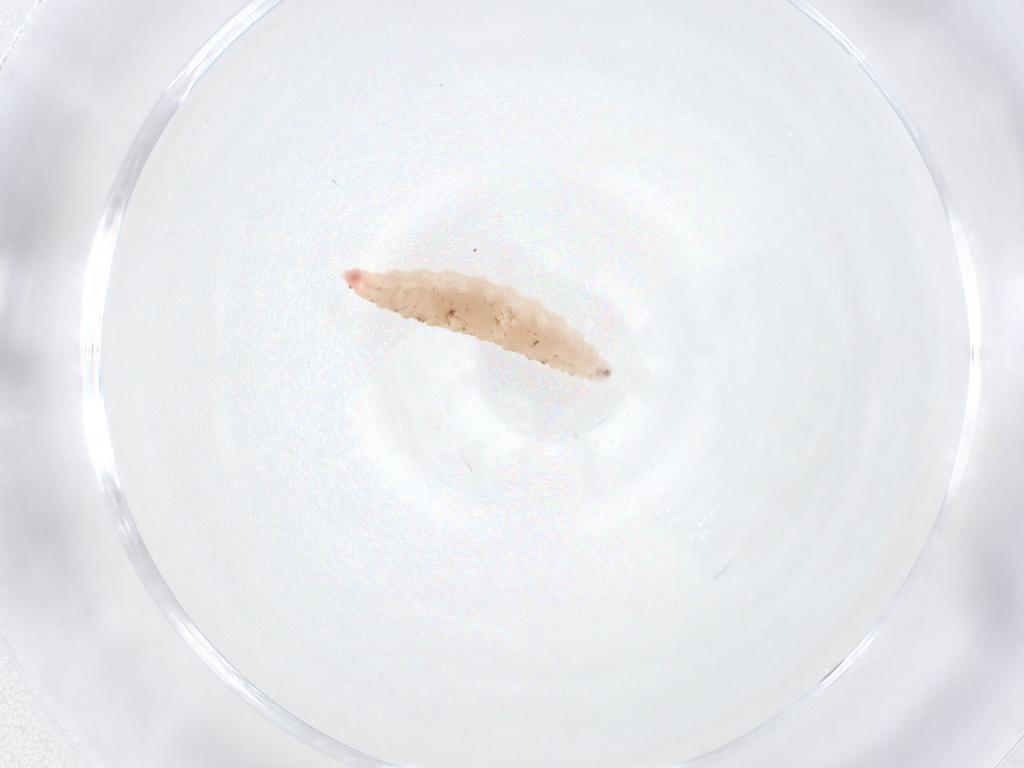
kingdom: Animalia
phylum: Arthropoda
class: Insecta
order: Diptera
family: Cecidomyiidae
